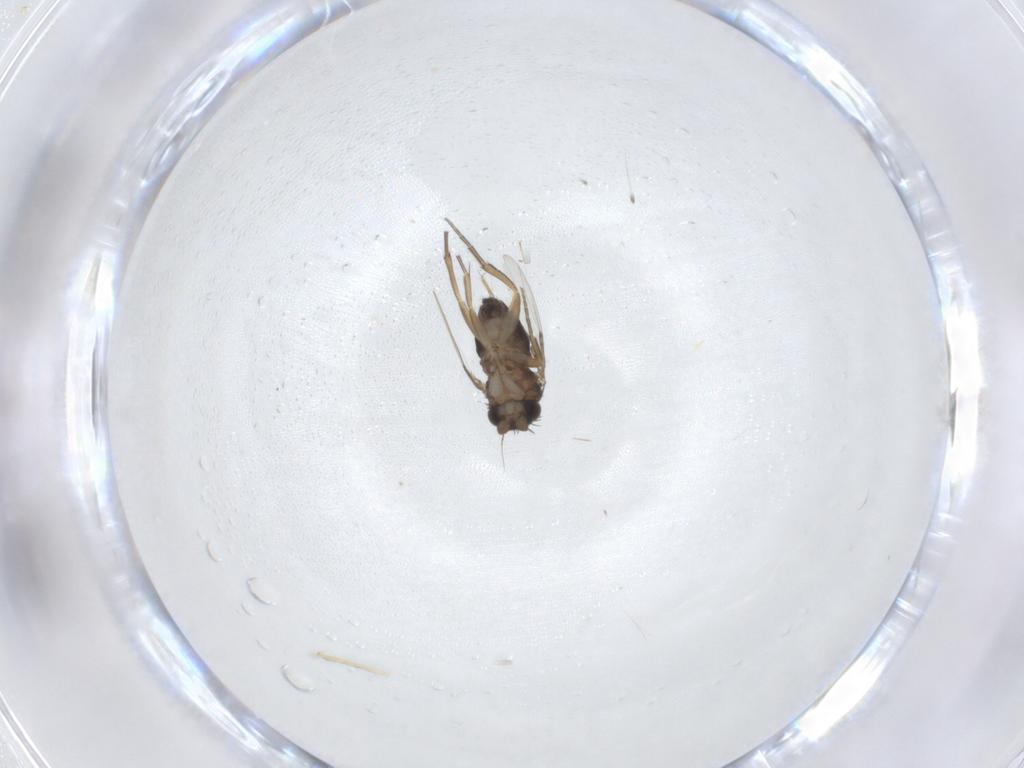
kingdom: Animalia
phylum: Arthropoda
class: Insecta
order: Diptera
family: Phoridae
